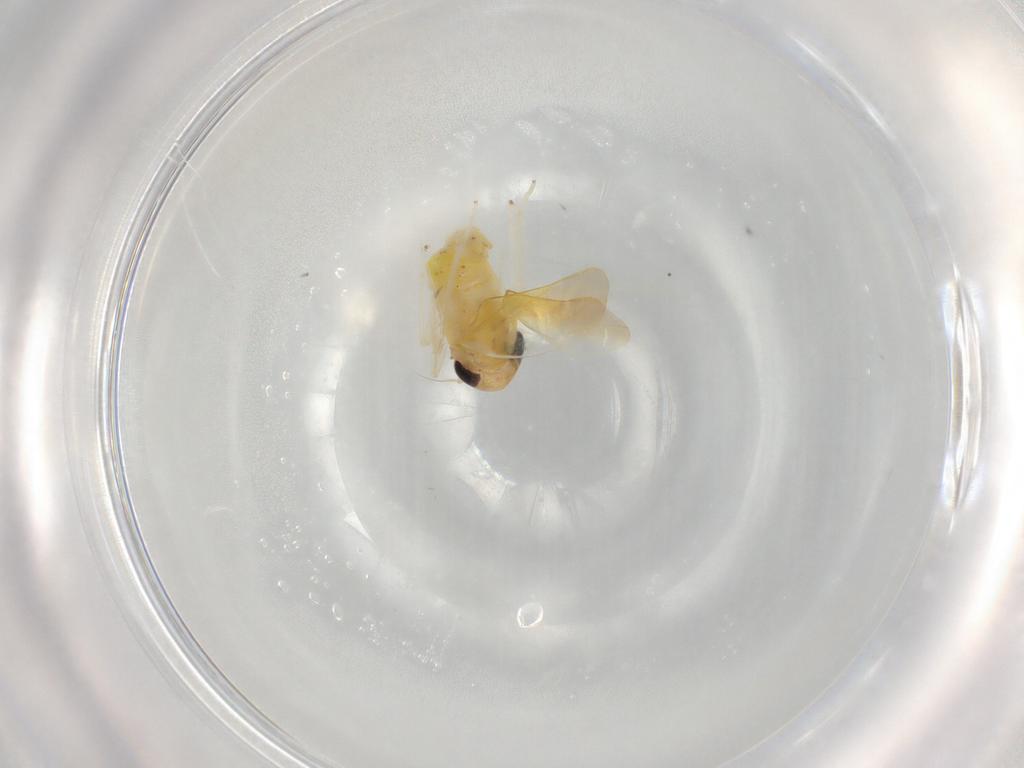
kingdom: Animalia
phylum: Arthropoda
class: Insecta
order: Hemiptera
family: Cicadellidae
